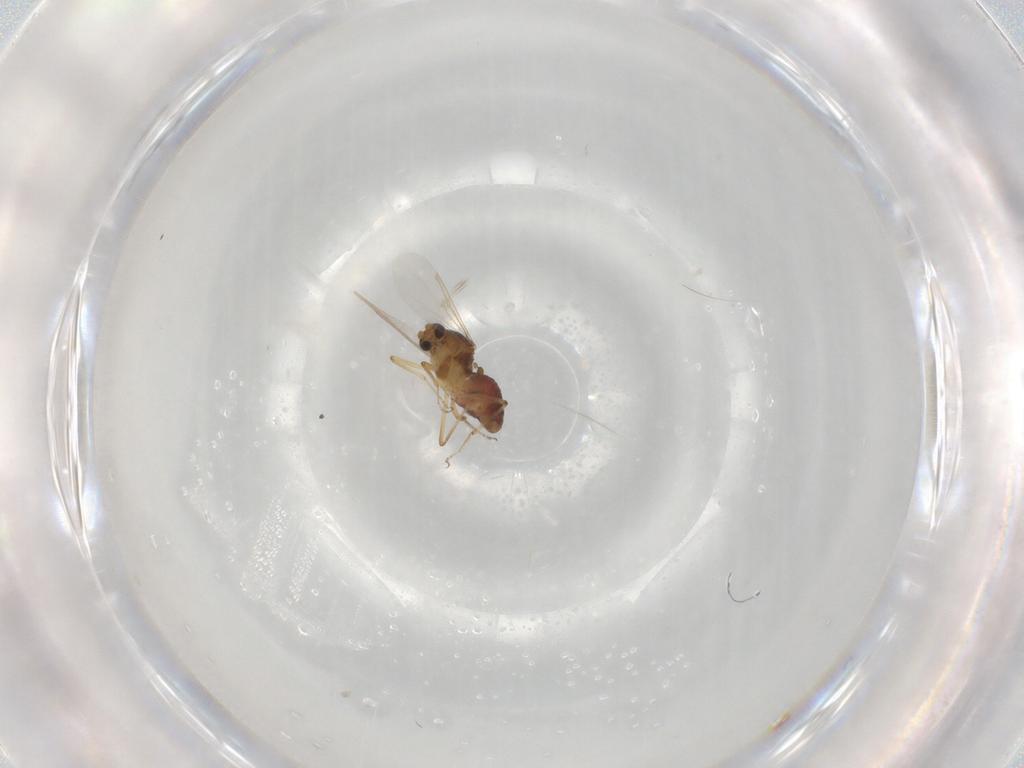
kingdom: Animalia
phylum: Arthropoda
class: Insecta
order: Diptera
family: Ceratopogonidae
